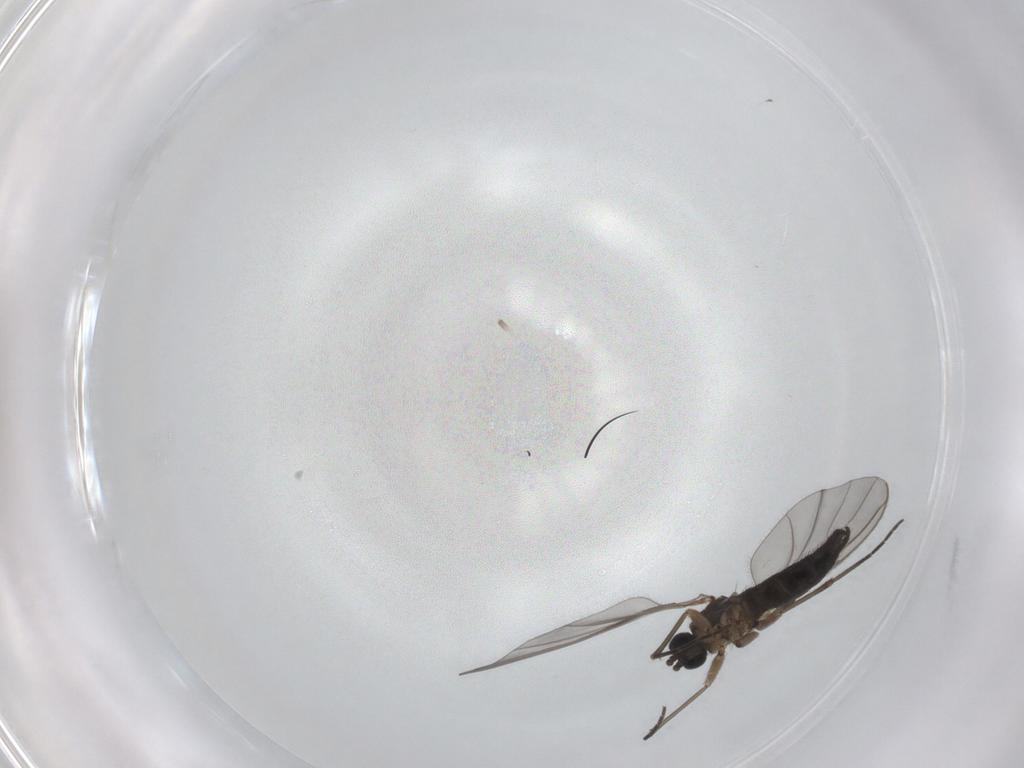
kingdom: Animalia
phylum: Arthropoda
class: Insecta
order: Diptera
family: Sciaridae
